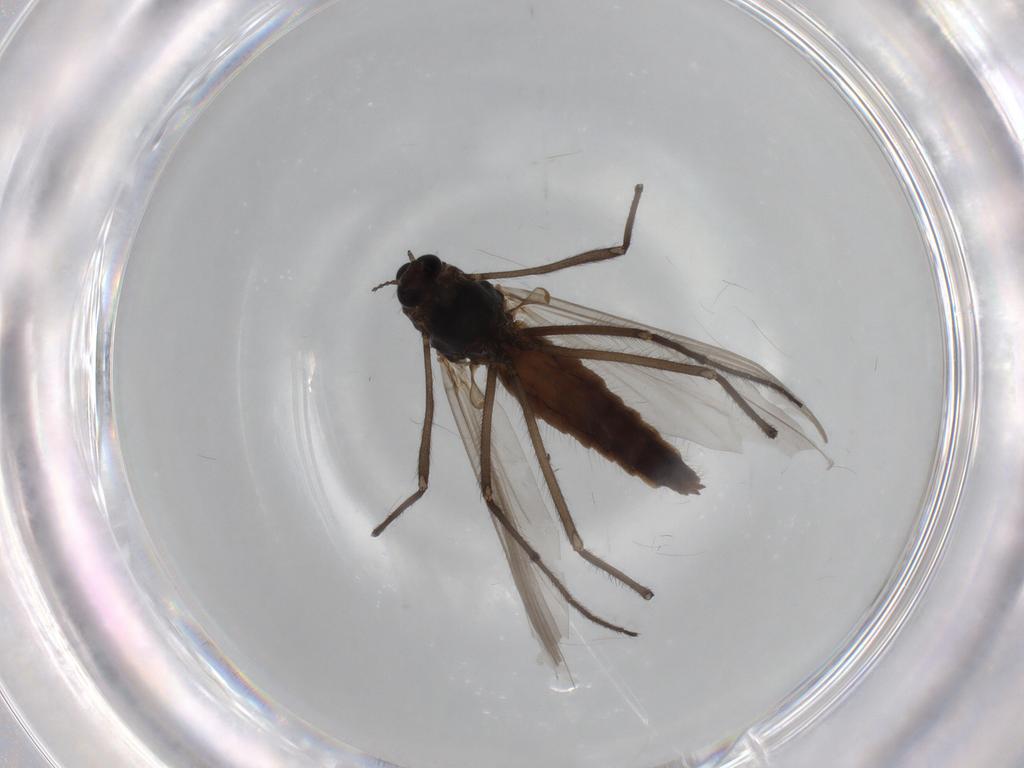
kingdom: Animalia
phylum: Arthropoda
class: Insecta
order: Diptera
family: Chironomidae
